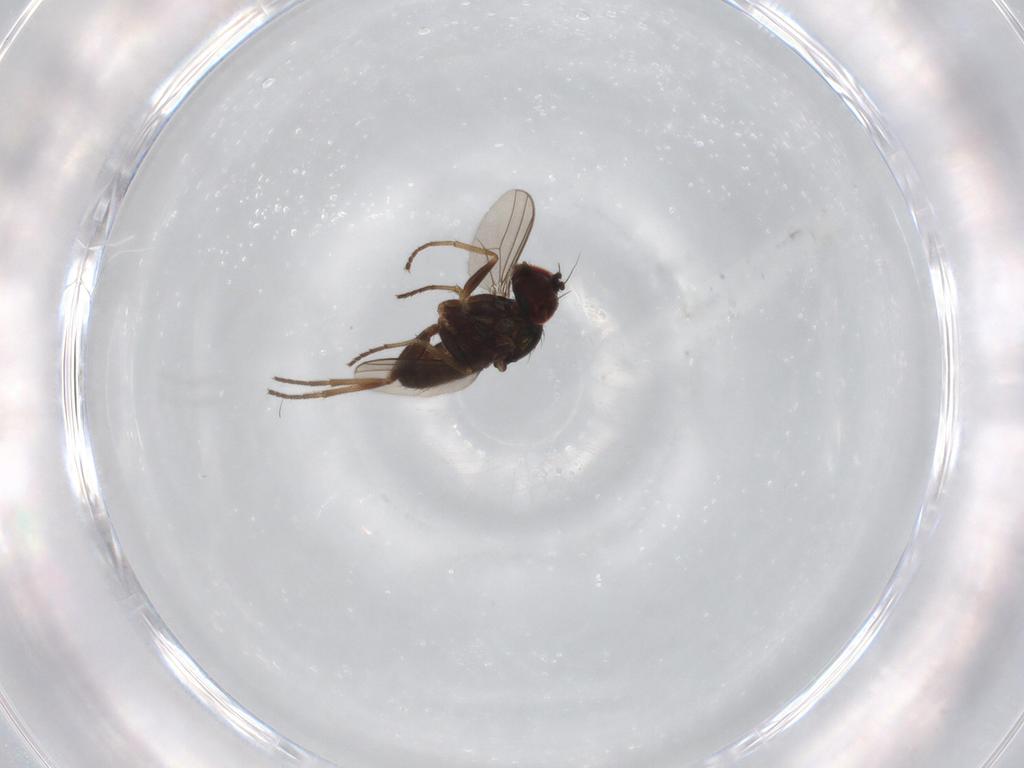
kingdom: Animalia
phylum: Arthropoda
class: Insecta
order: Diptera
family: Dolichopodidae
